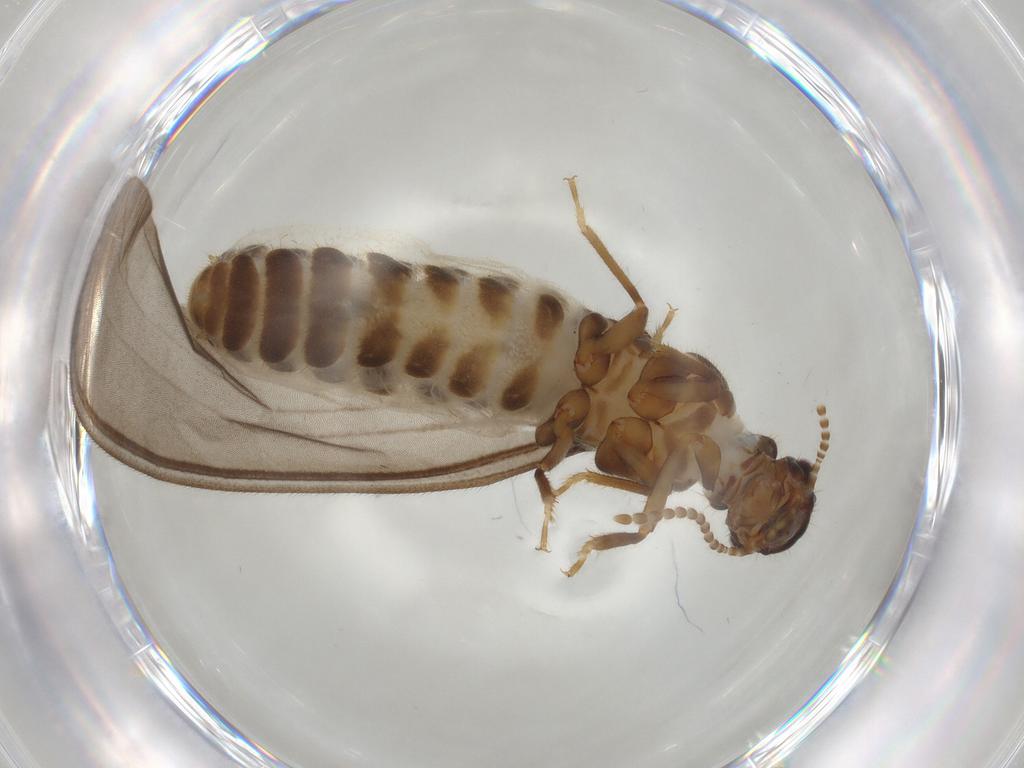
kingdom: Animalia
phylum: Arthropoda
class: Insecta
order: Blattodea
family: Termitidae
